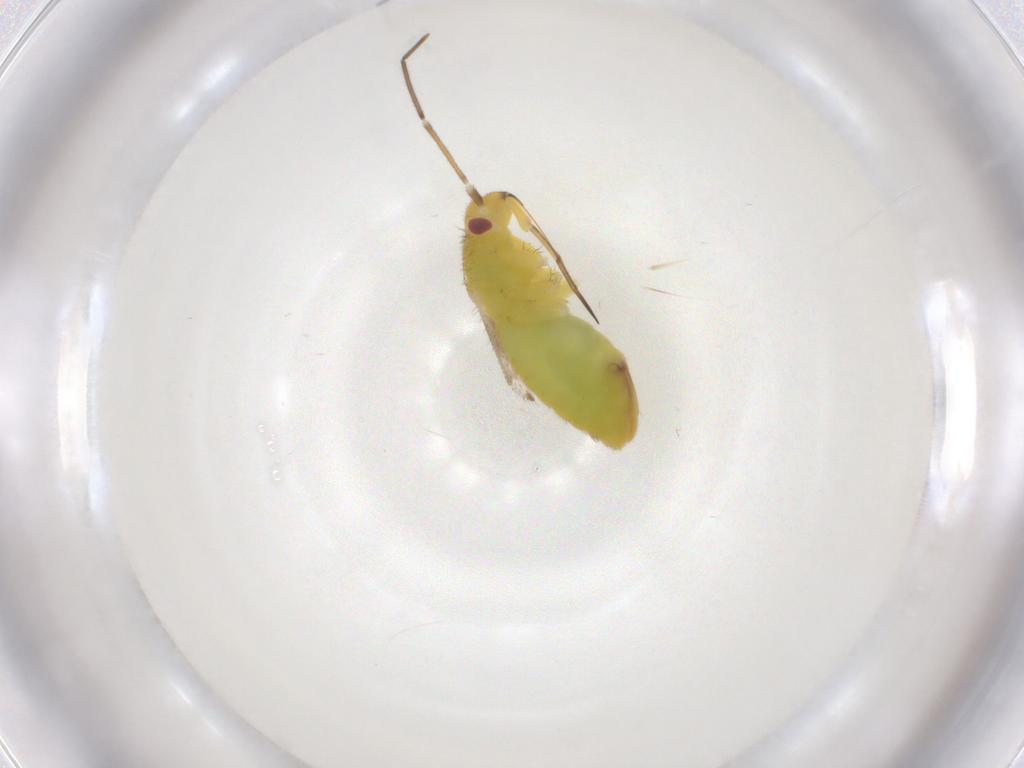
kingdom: Animalia
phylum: Arthropoda
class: Insecta
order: Hemiptera
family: Miridae
